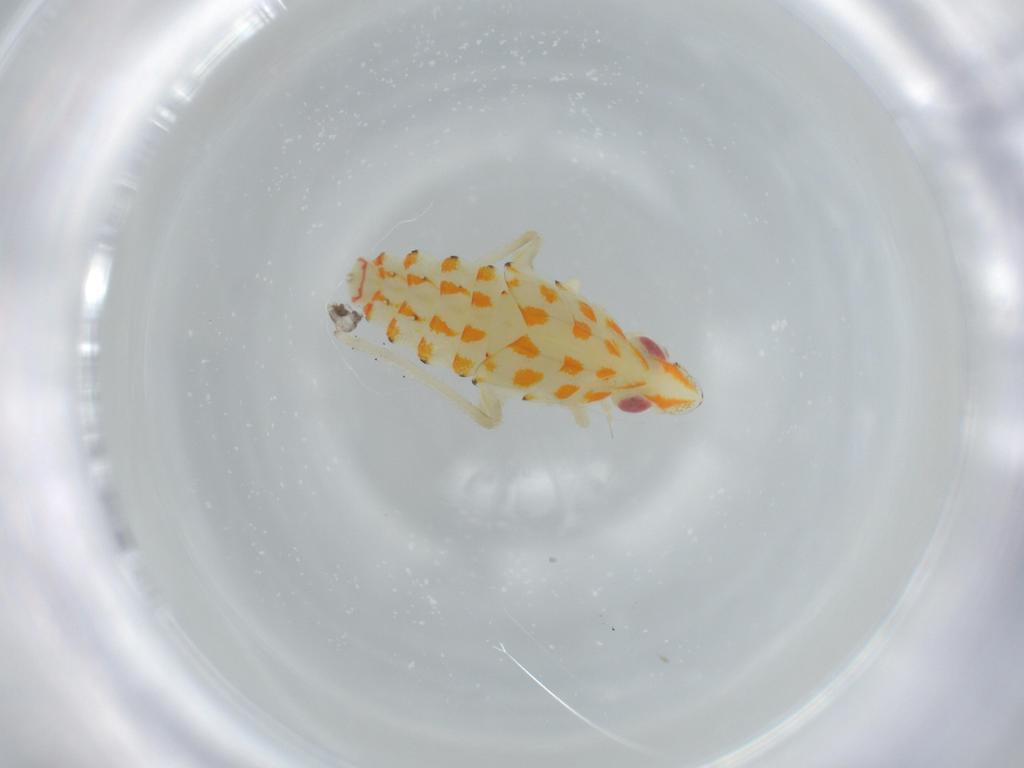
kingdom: Animalia
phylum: Arthropoda
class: Insecta
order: Hemiptera
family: Tropiduchidae
